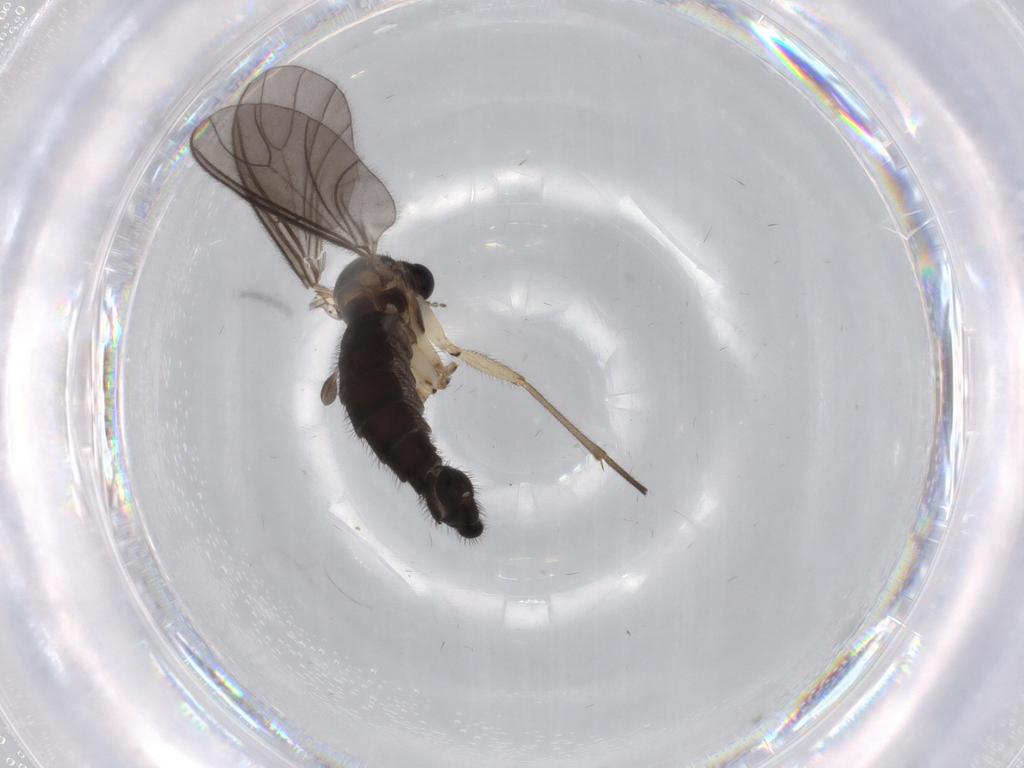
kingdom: Animalia
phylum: Arthropoda
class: Insecta
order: Diptera
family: Sciaridae
